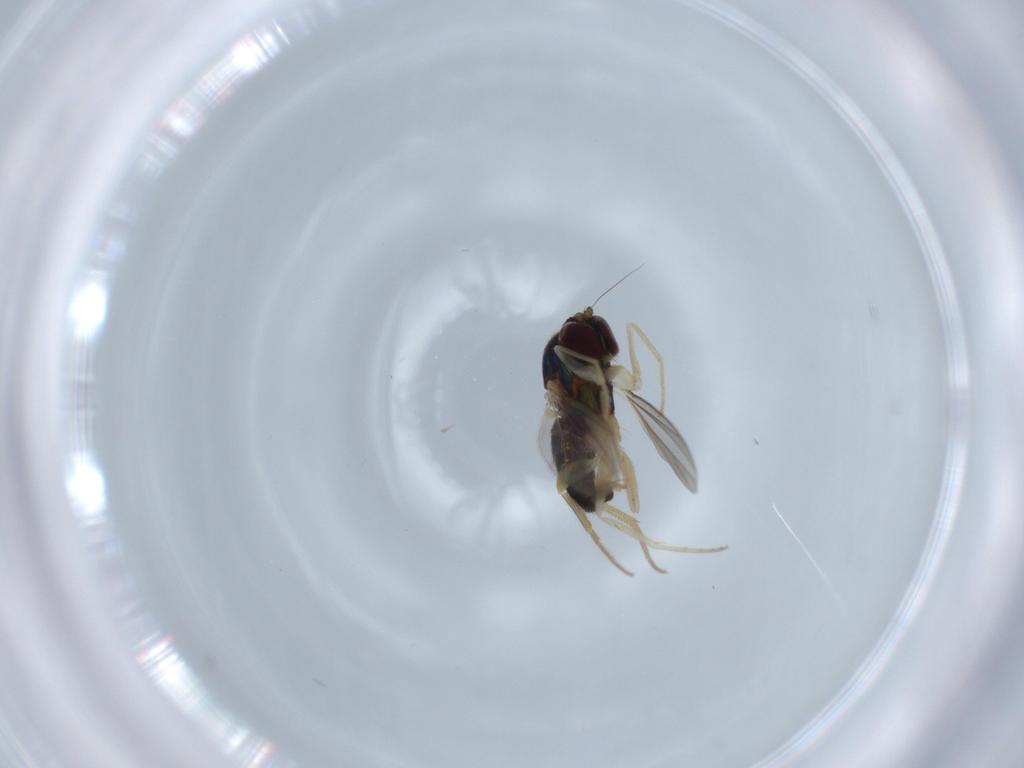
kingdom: Animalia
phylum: Arthropoda
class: Insecta
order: Diptera
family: Dolichopodidae
